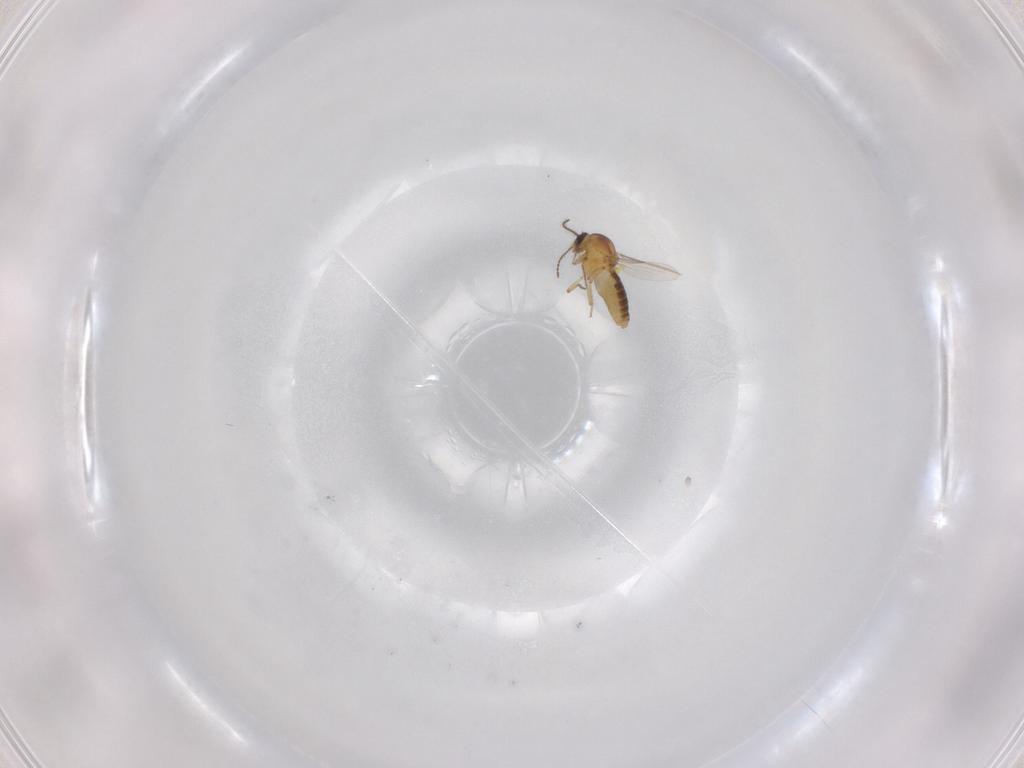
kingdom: Animalia
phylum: Arthropoda
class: Insecta
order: Diptera
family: Ceratopogonidae
